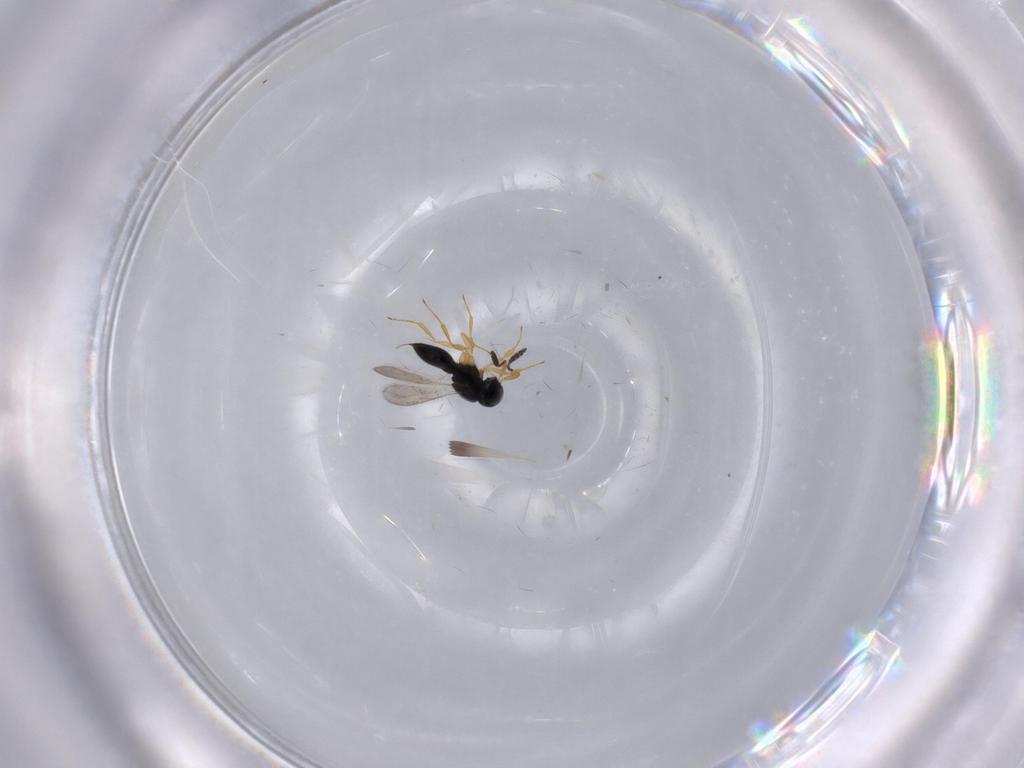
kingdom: Animalia
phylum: Arthropoda
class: Insecta
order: Hymenoptera
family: Scelionidae
